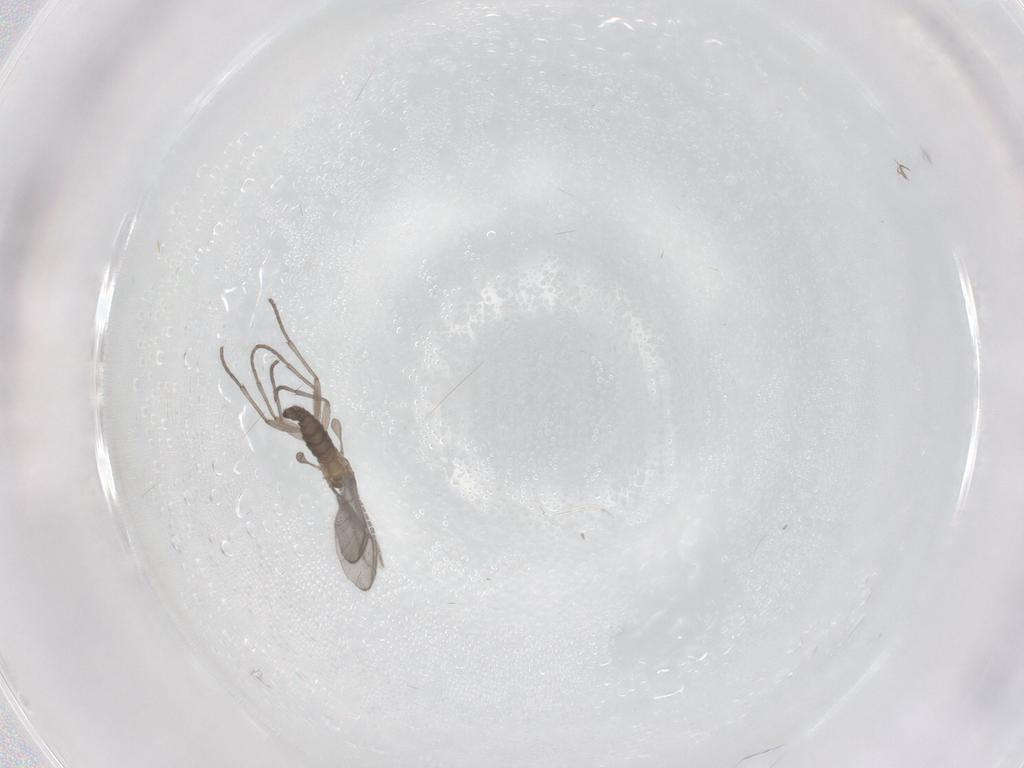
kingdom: Animalia
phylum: Arthropoda
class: Insecta
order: Diptera
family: Sciaridae
